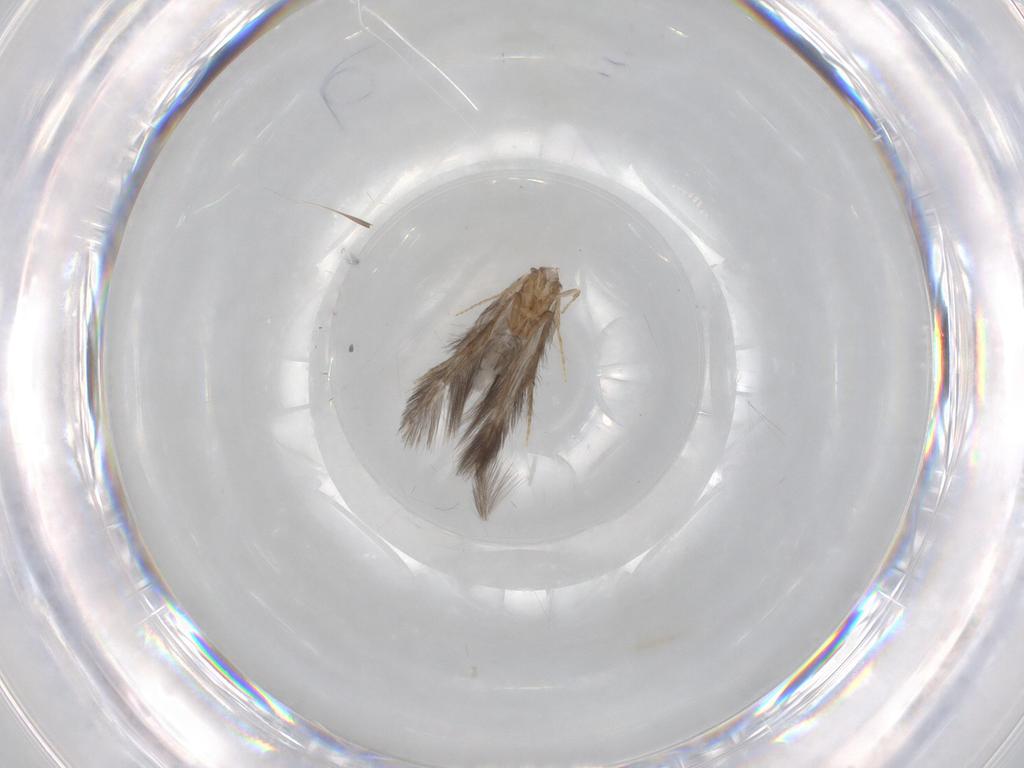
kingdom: Animalia
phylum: Arthropoda
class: Insecta
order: Trichoptera
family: Hydroptilidae
